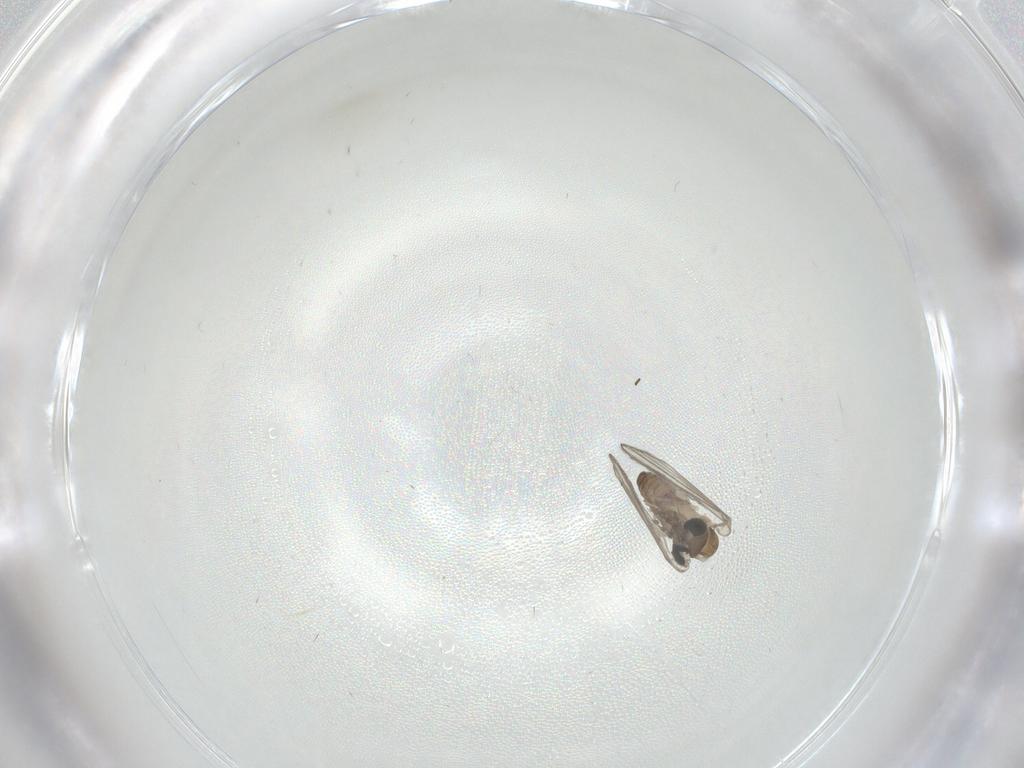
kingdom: Animalia
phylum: Arthropoda
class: Insecta
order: Diptera
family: Psychodidae
